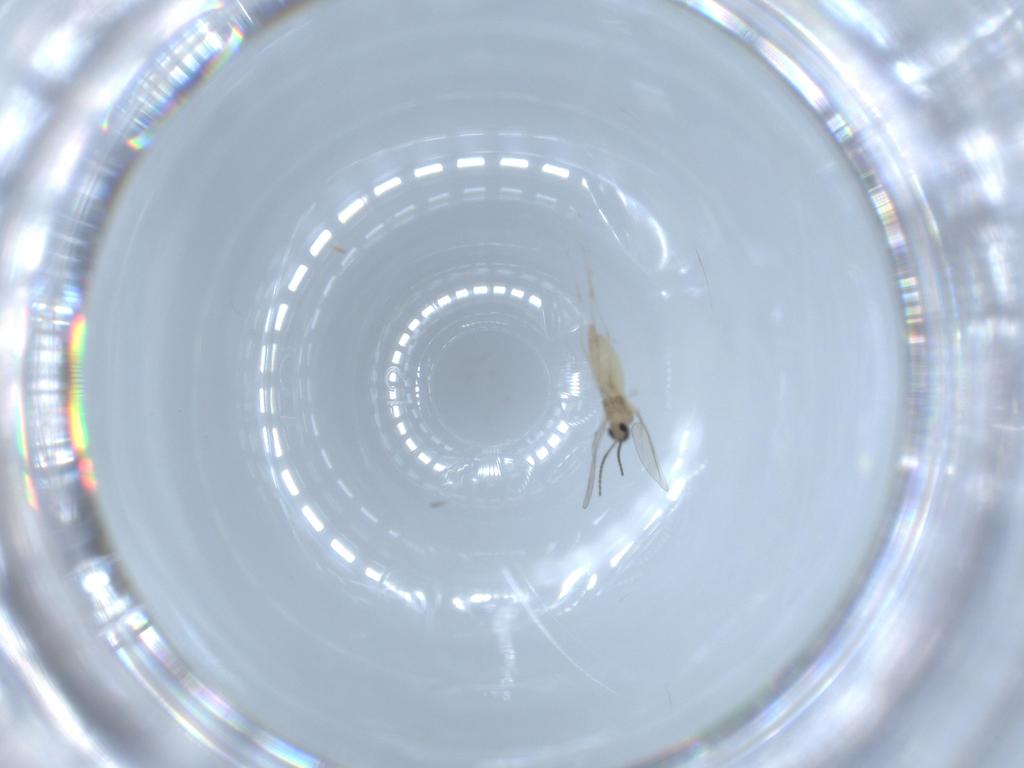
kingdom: Animalia
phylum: Arthropoda
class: Insecta
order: Diptera
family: Cecidomyiidae
